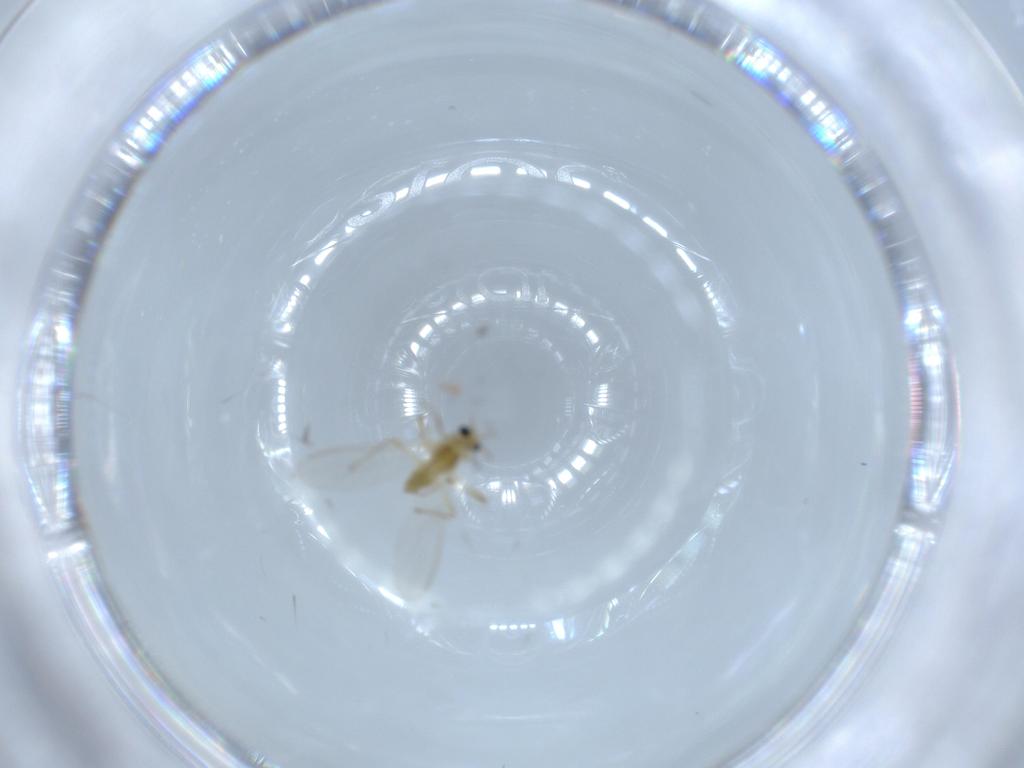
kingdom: Animalia
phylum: Arthropoda
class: Insecta
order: Diptera
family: Chironomidae
